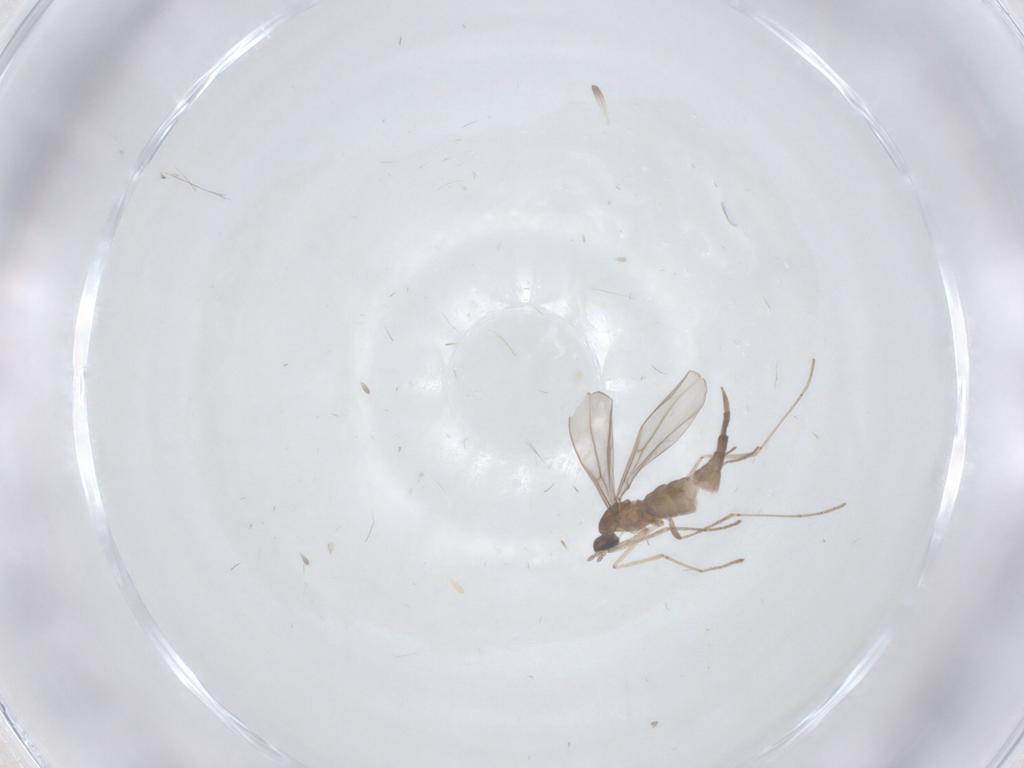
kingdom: Animalia
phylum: Arthropoda
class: Insecta
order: Diptera
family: Cecidomyiidae
